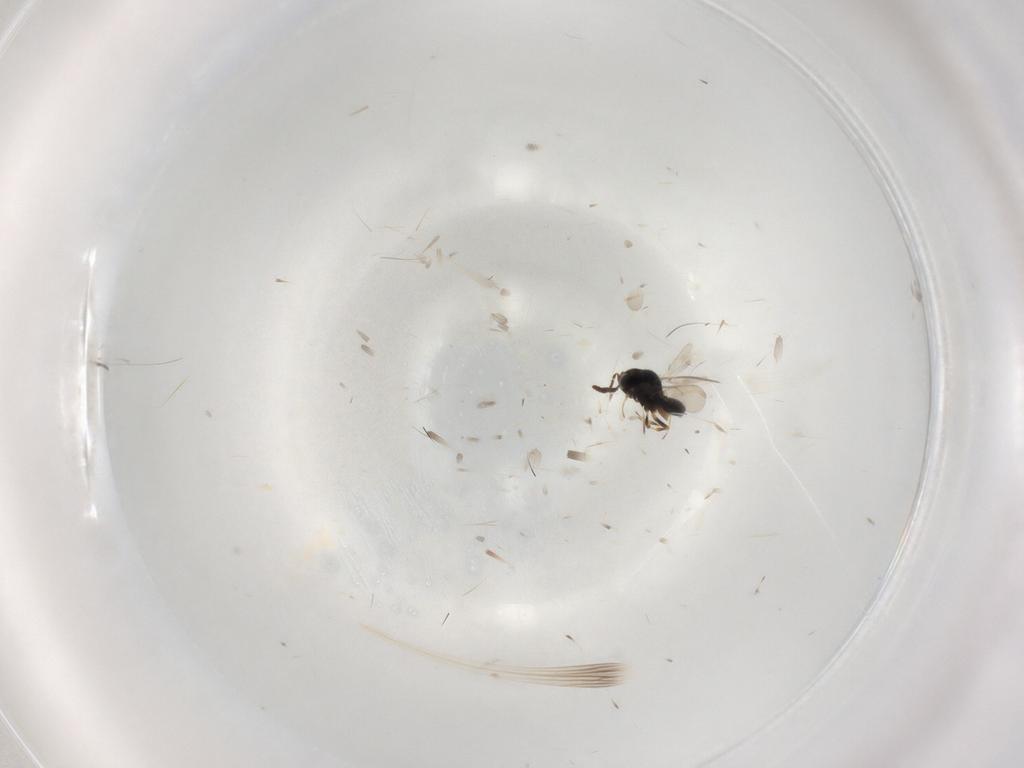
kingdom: Animalia
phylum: Arthropoda
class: Insecta
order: Hymenoptera
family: Scelionidae
